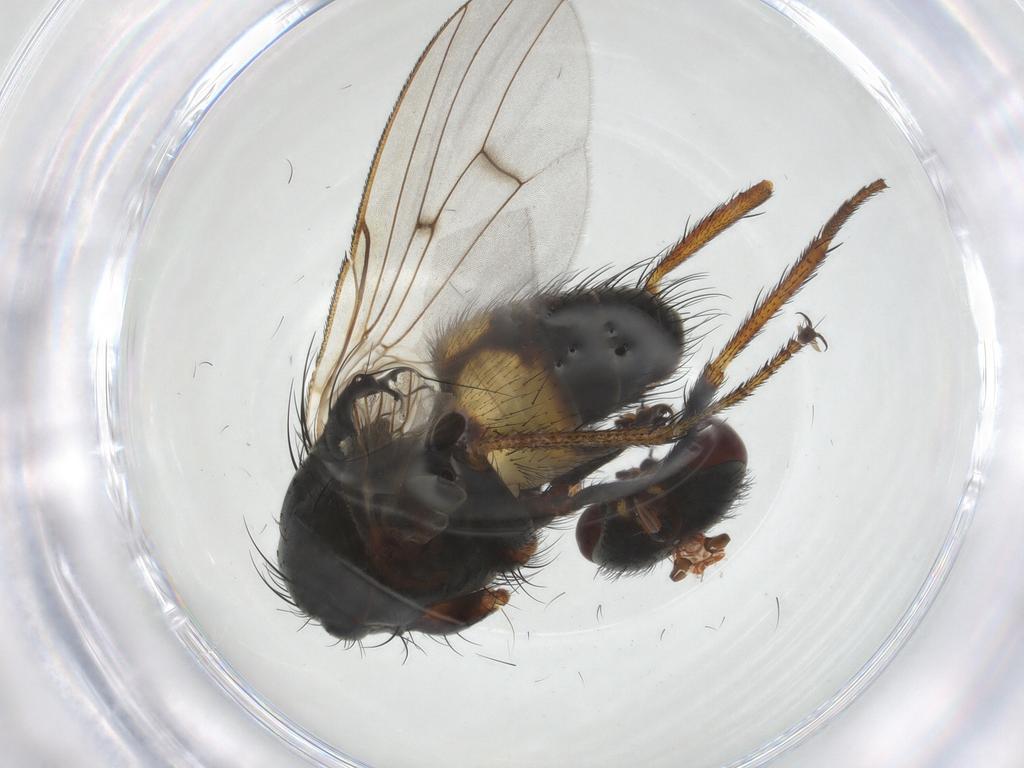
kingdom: Animalia
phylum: Arthropoda
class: Insecta
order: Diptera
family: Muscidae
